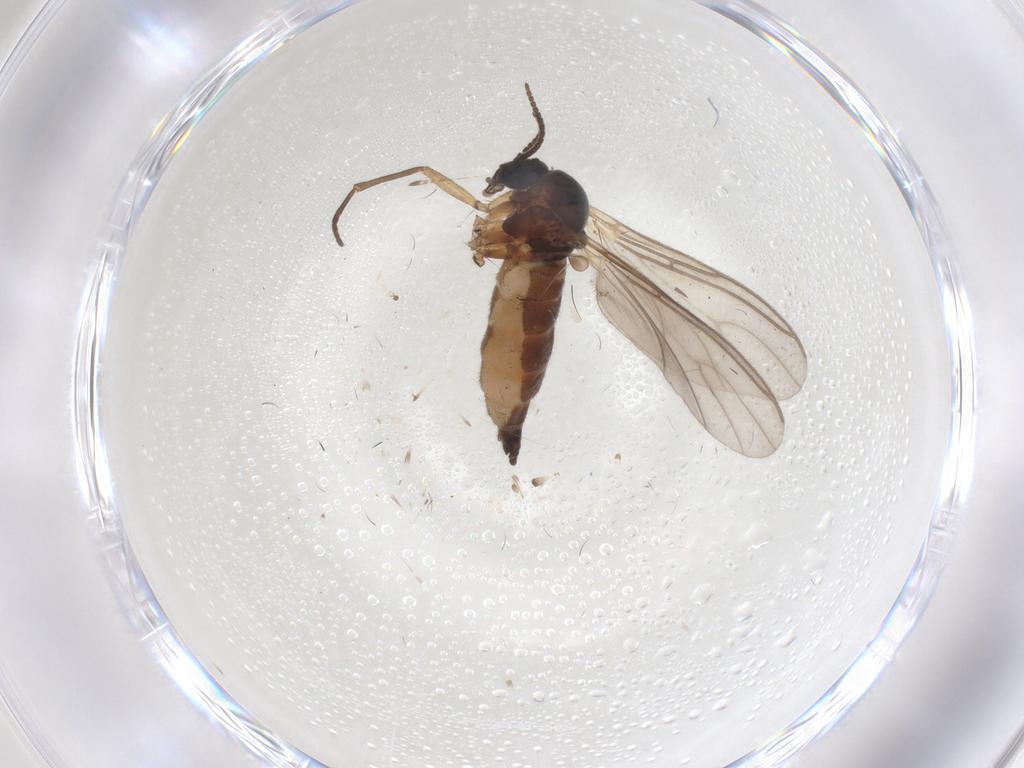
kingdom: Animalia
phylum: Arthropoda
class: Insecta
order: Diptera
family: Sciaridae
